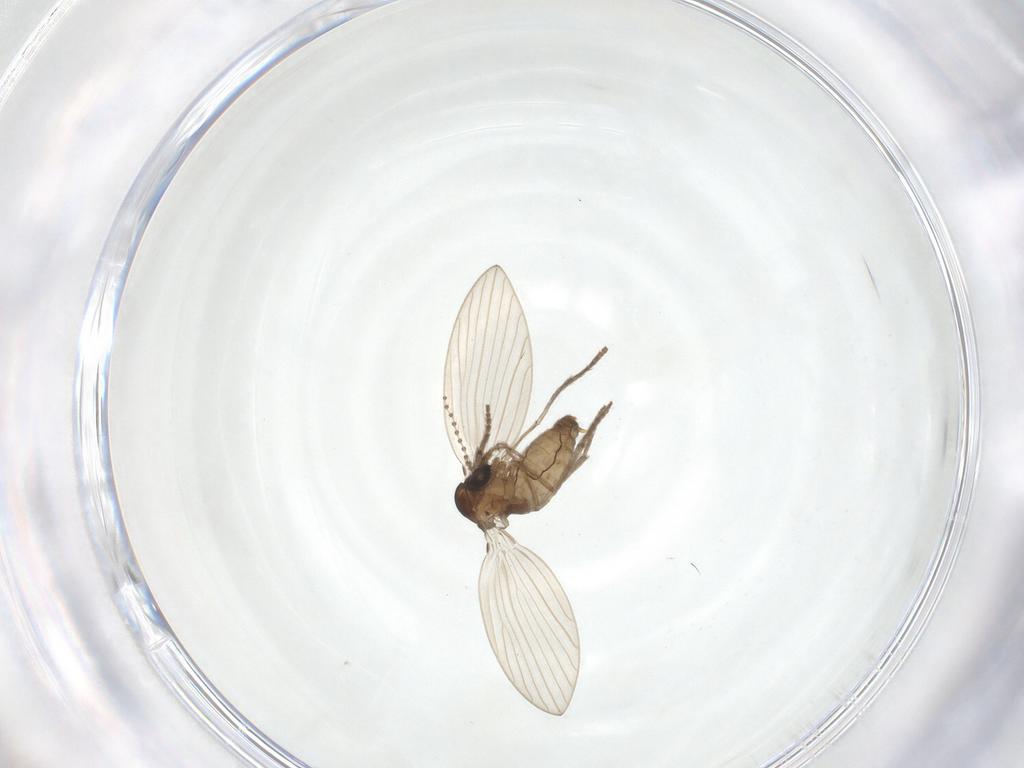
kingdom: Animalia
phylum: Arthropoda
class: Insecta
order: Diptera
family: Psychodidae
